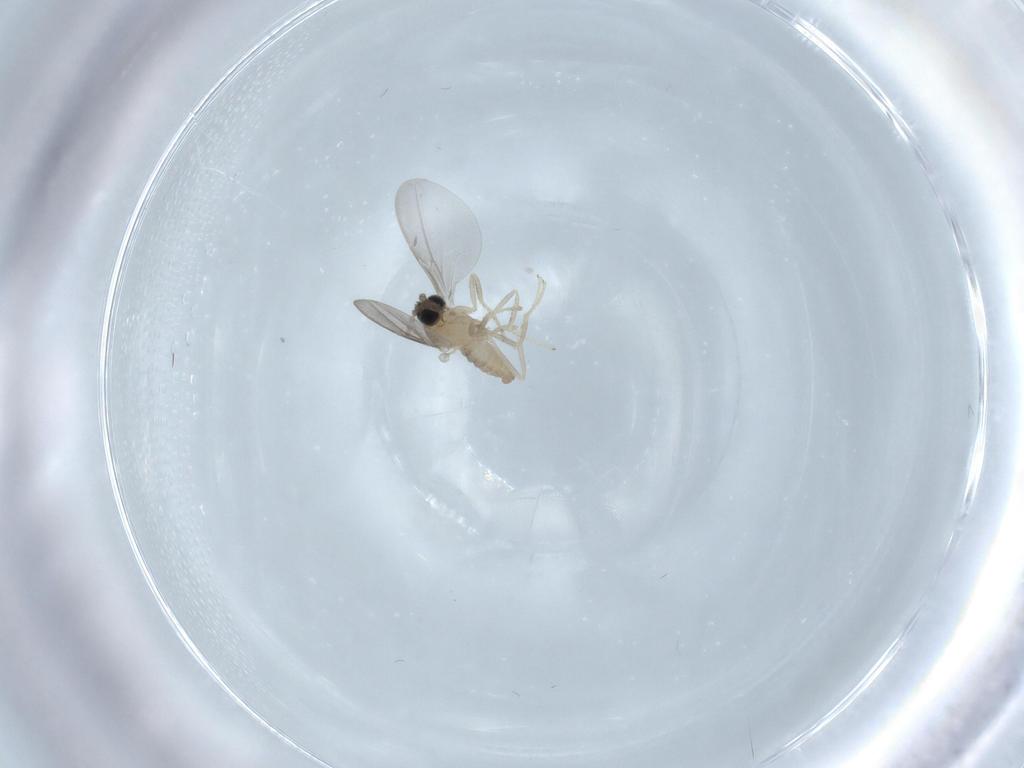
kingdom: Animalia
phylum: Arthropoda
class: Insecta
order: Diptera
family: Cecidomyiidae
